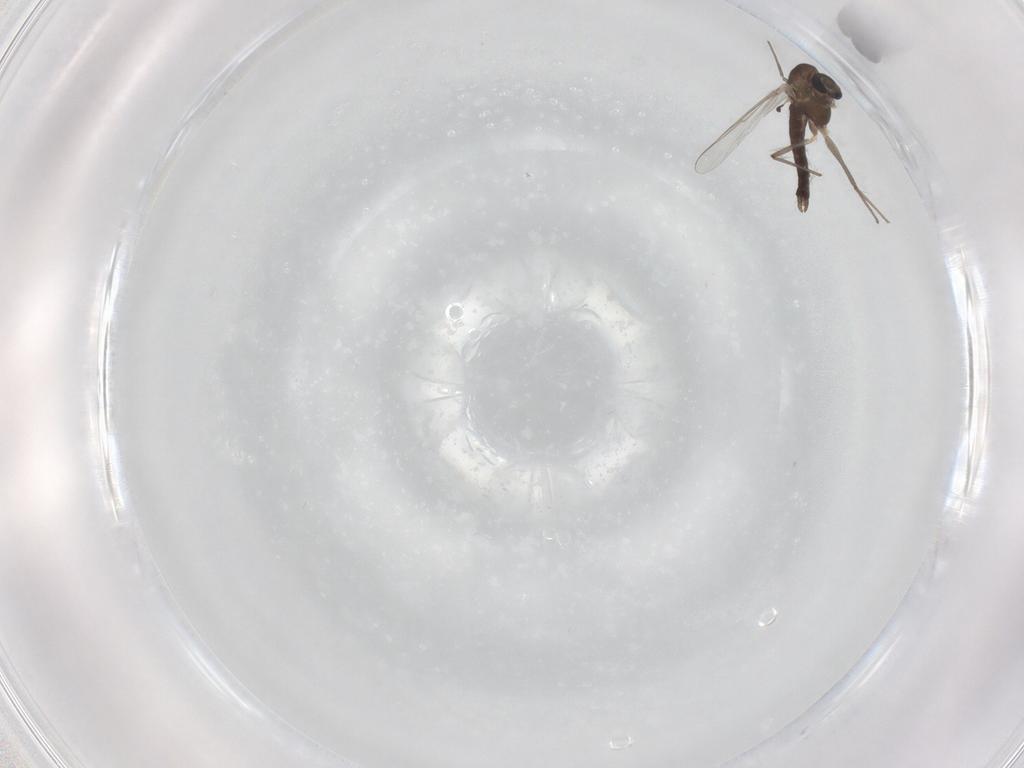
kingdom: Animalia
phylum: Arthropoda
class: Insecta
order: Diptera
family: Chironomidae
